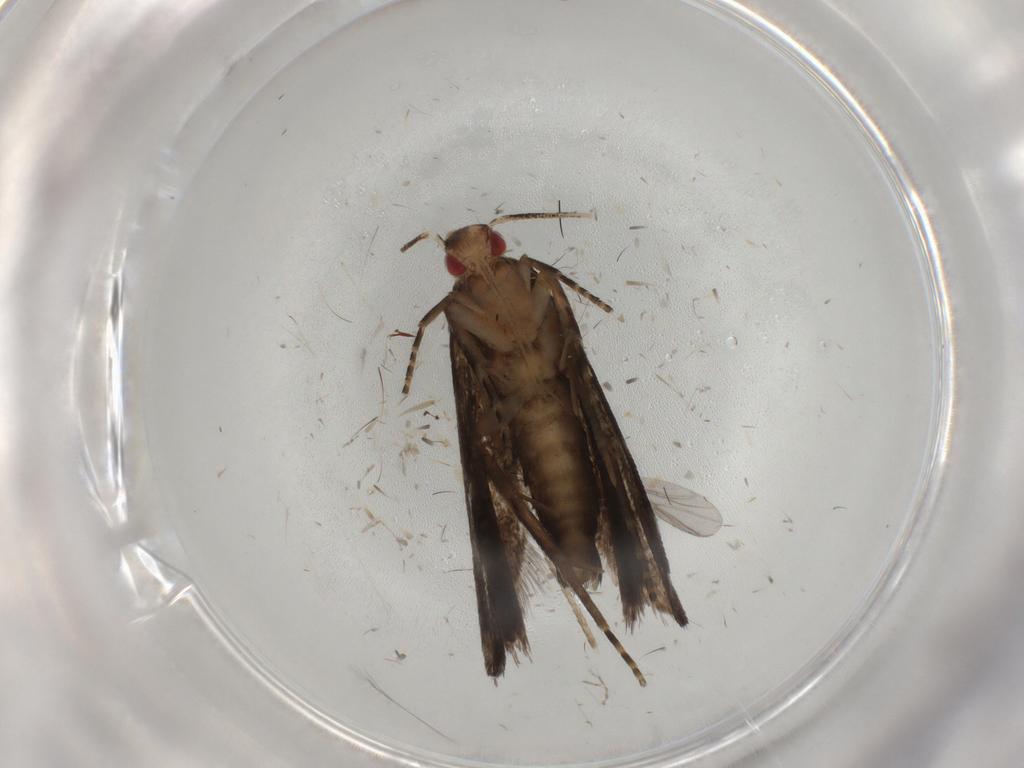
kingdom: Animalia
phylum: Arthropoda
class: Insecta
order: Lepidoptera
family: Gelechiidae
